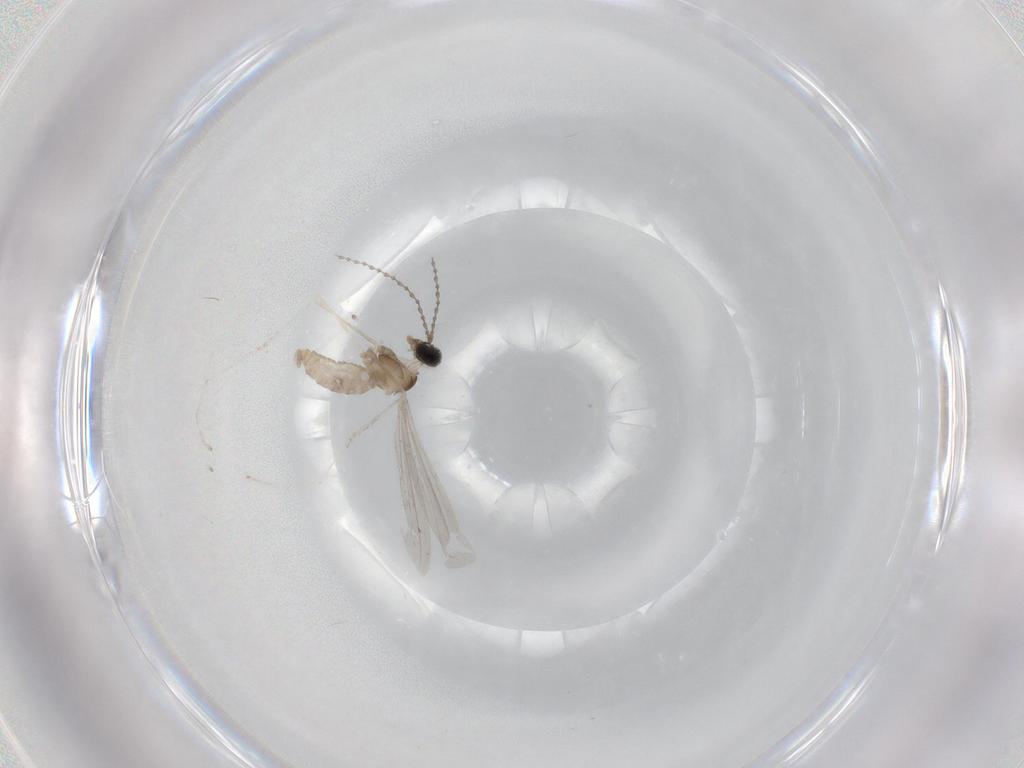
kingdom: Animalia
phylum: Arthropoda
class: Insecta
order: Diptera
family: Cecidomyiidae
